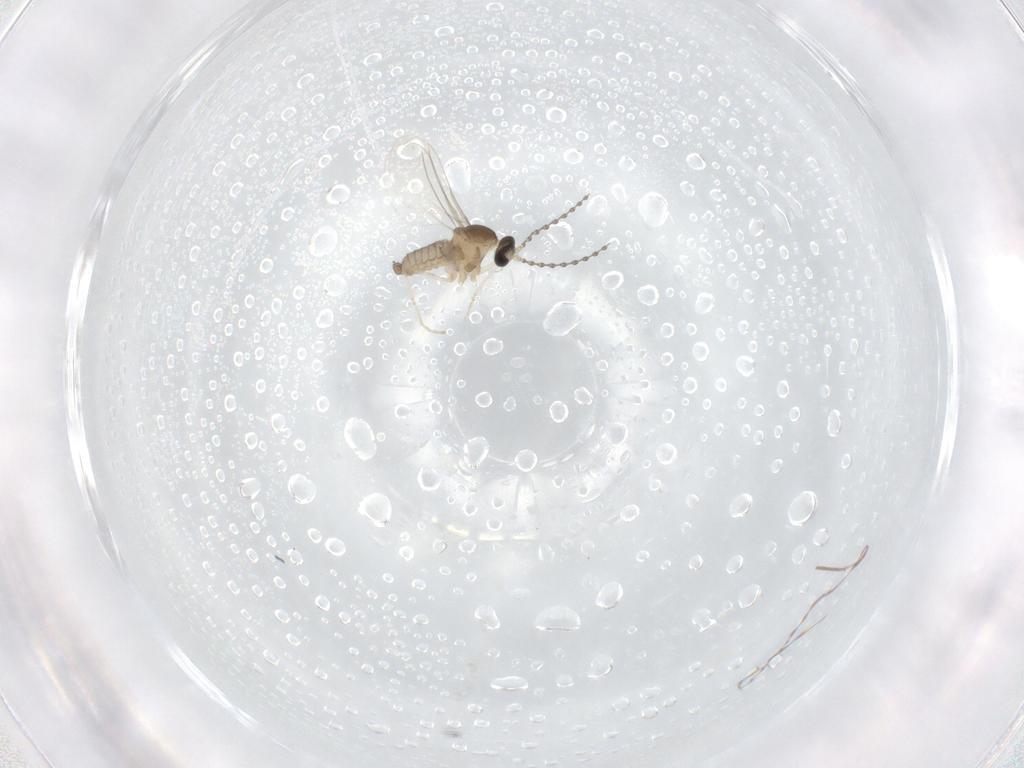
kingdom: Animalia
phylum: Arthropoda
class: Insecta
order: Diptera
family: Cecidomyiidae
